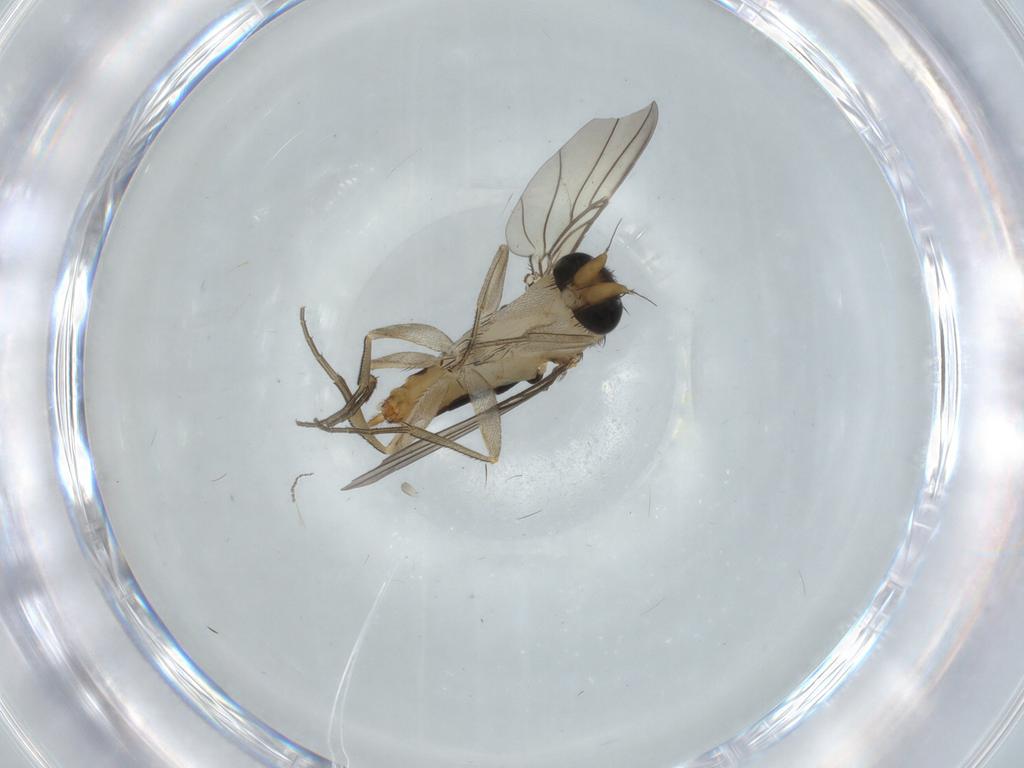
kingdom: Animalia
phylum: Arthropoda
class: Insecta
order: Diptera
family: Phoridae
